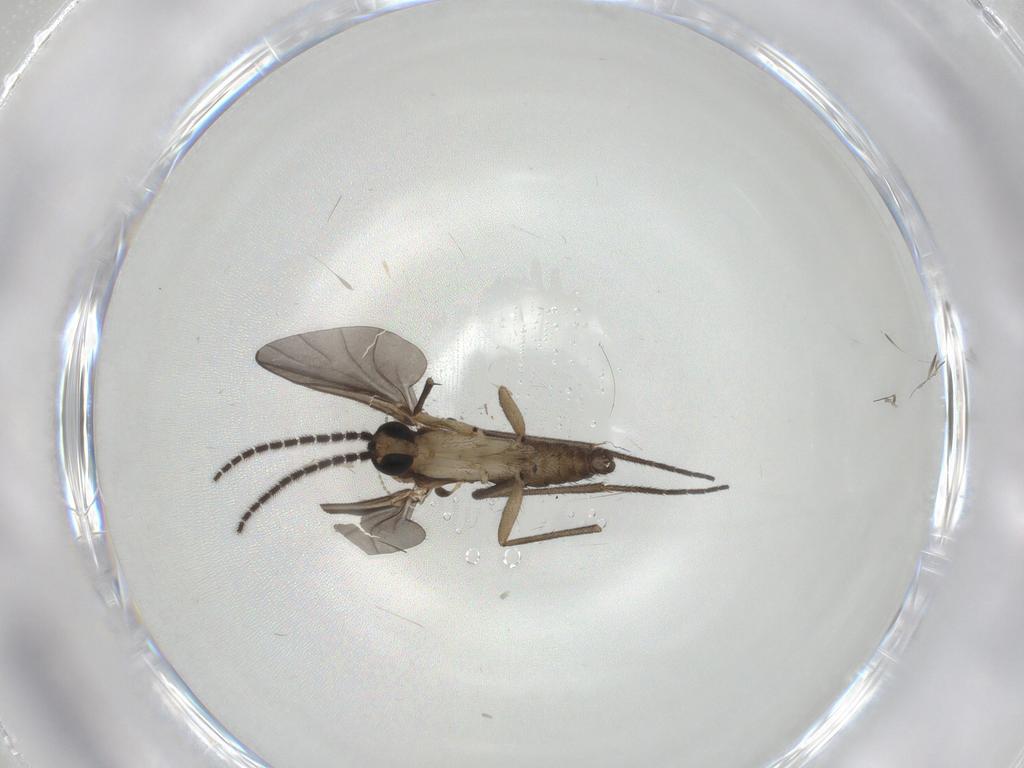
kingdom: Animalia
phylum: Arthropoda
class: Insecta
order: Diptera
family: Sciaridae
